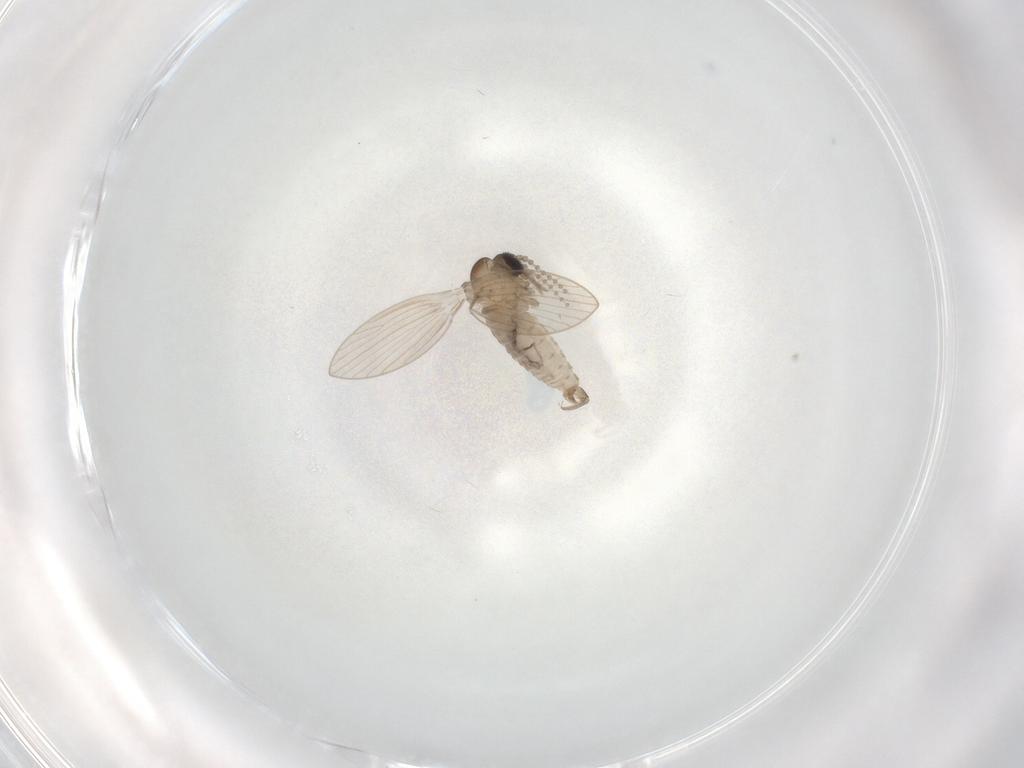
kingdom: Animalia
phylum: Arthropoda
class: Insecta
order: Diptera
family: Psychodidae
